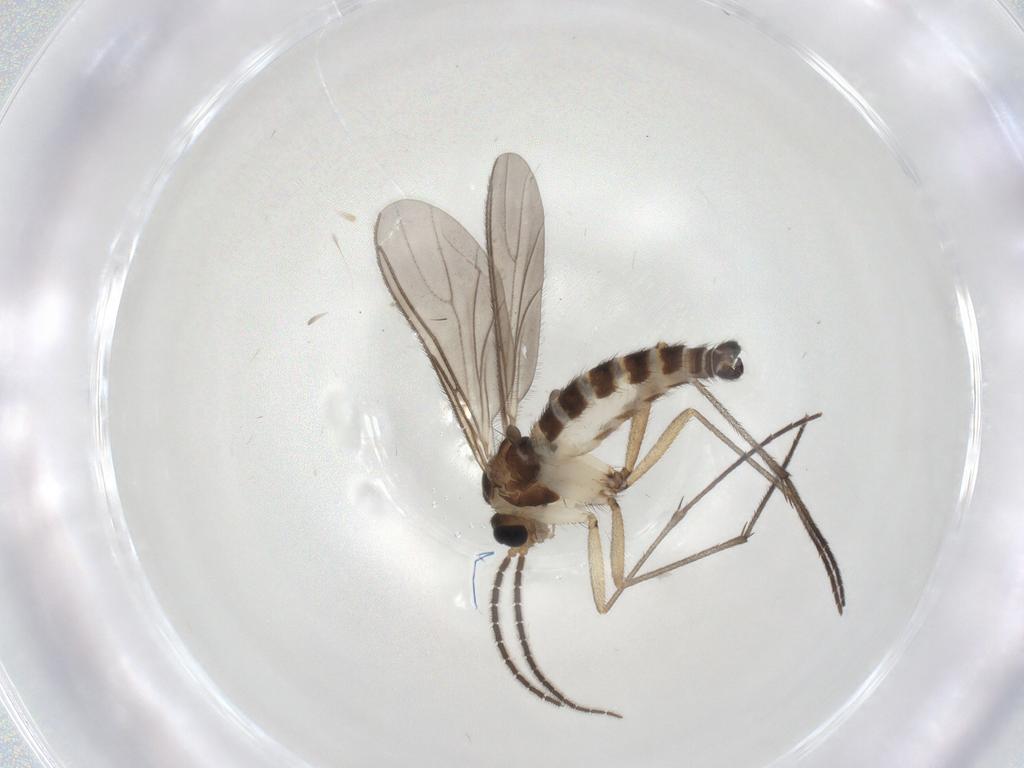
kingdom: Animalia
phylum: Arthropoda
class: Insecta
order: Diptera
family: Sciaridae
